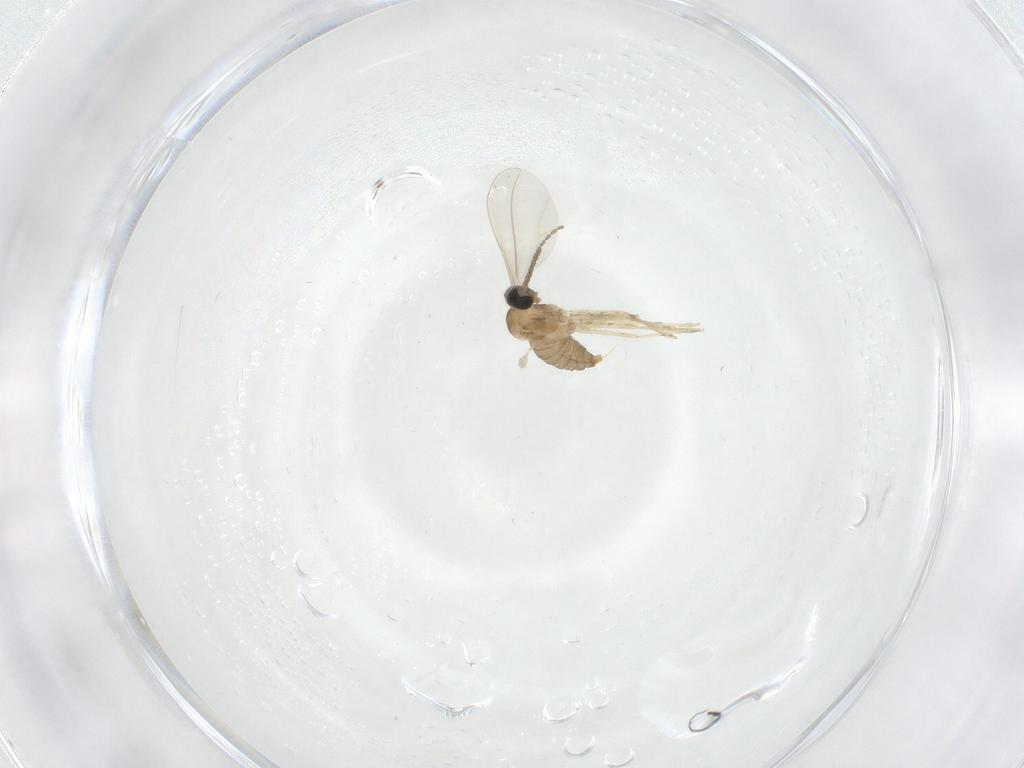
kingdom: Animalia
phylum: Arthropoda
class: Insecta
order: Diptera
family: Cecidomyiidae
